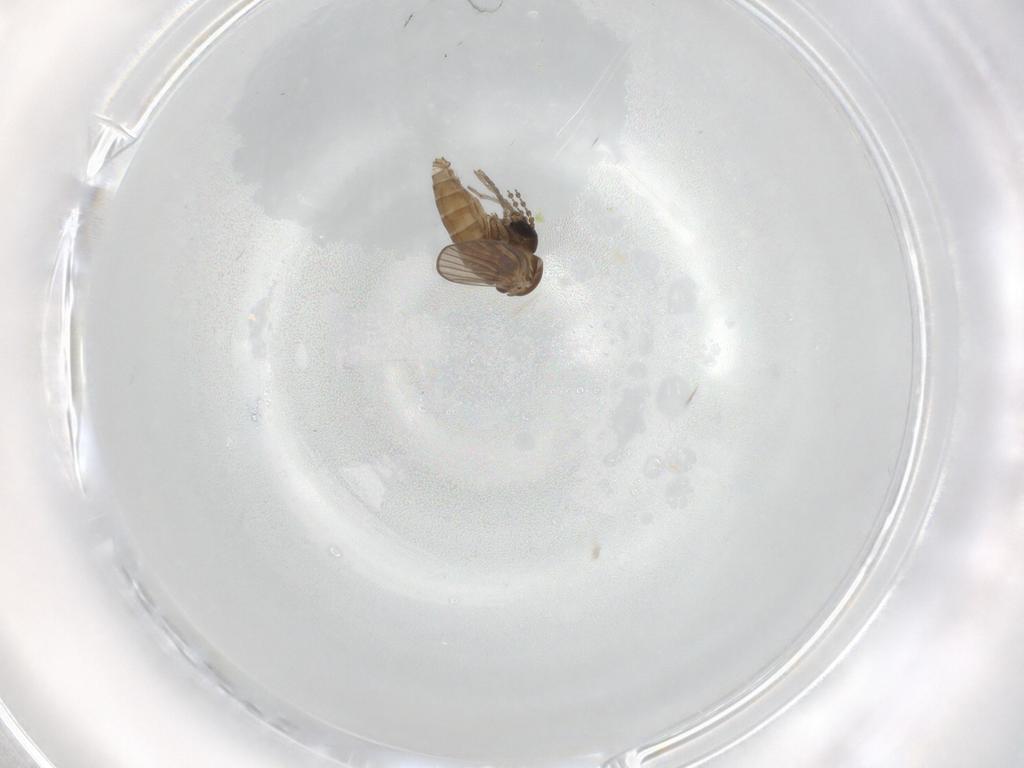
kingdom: Animalia
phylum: Arthropoda
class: Insecta
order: Diptera
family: Psychodidae
